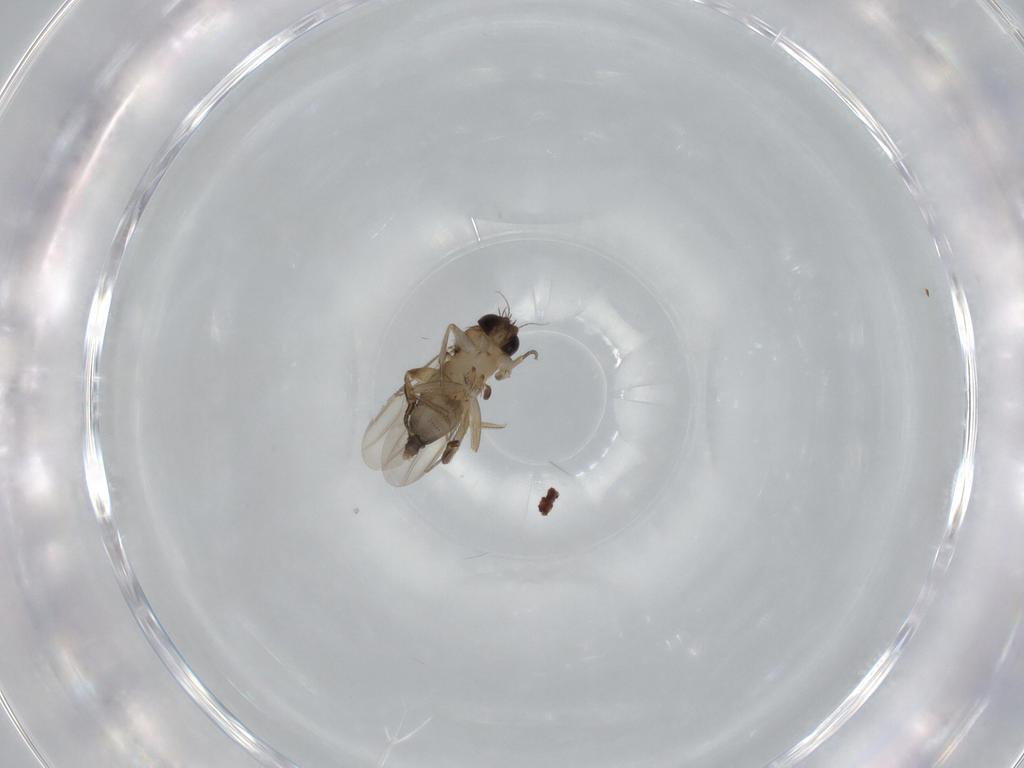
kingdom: Animalia
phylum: Arthropoda
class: Insecta
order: Diptera
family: Phoridae
